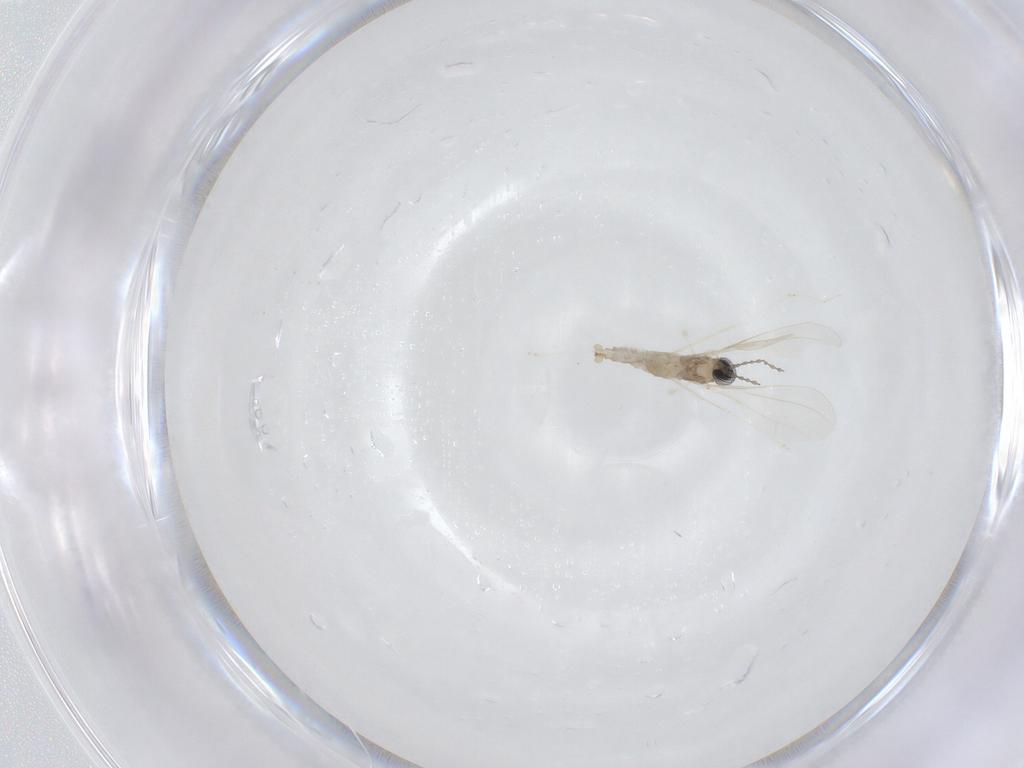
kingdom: Animalia
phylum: Arthropoda
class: Insecta
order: Diptera
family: Cecidomyiidae
